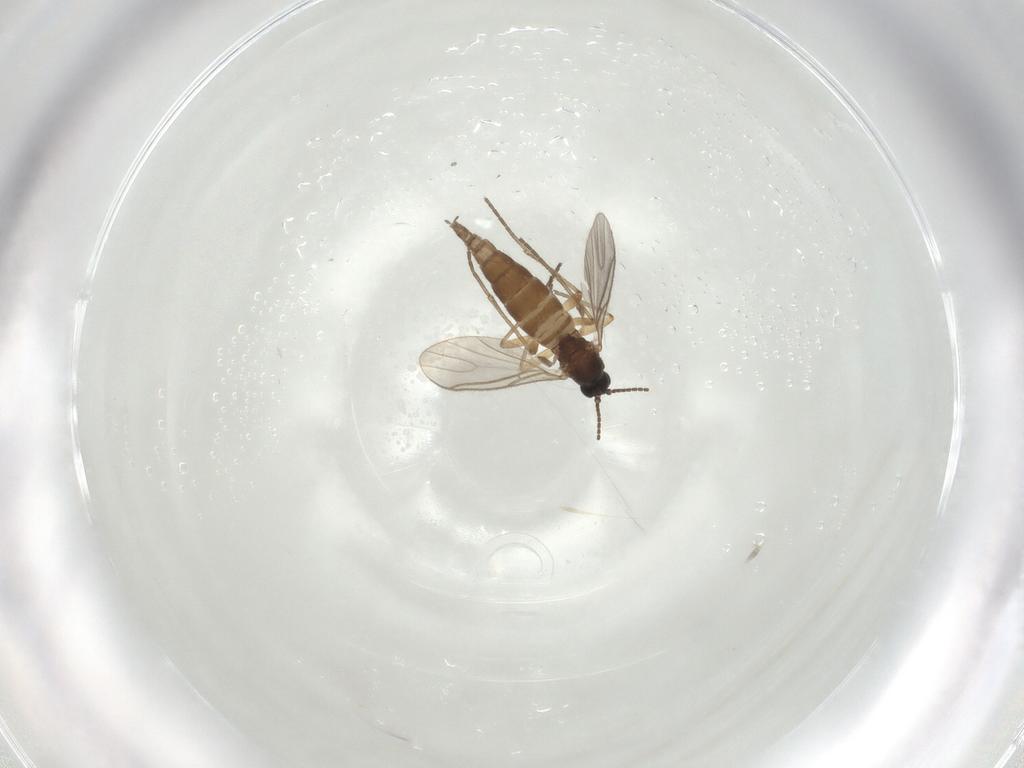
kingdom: Animalia
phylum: Arthropoda
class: Insecta
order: Diptera
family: Sciaridae
